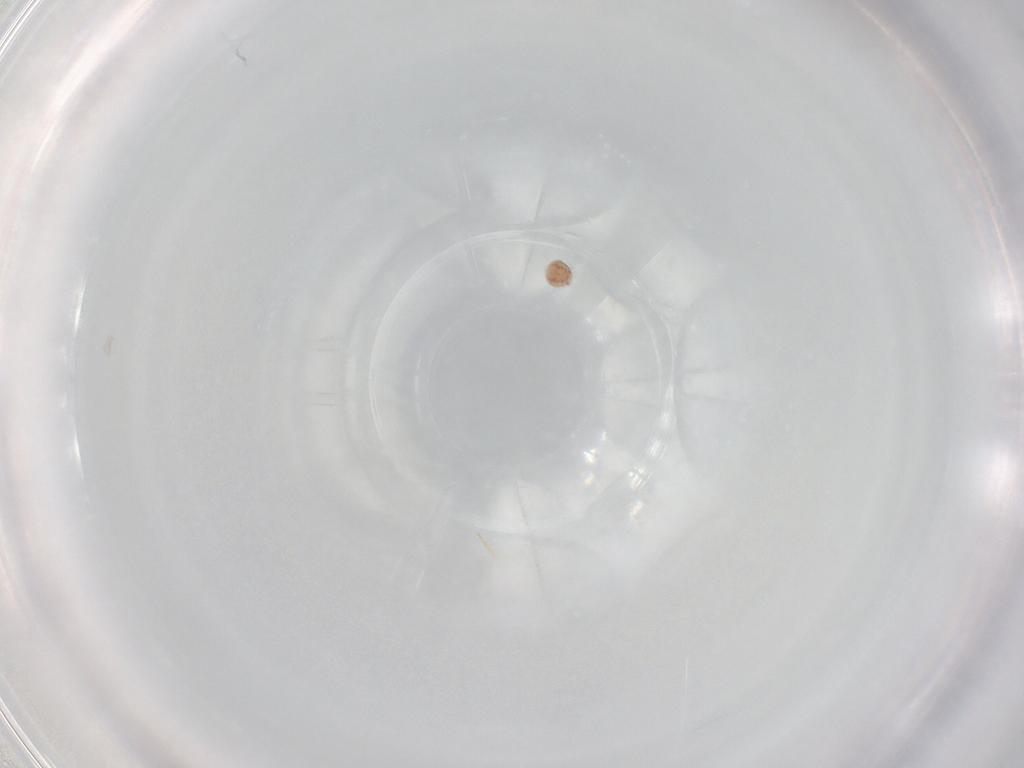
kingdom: Animalia
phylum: Arthropoda
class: Arachnida
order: Trombidiformes
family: Scutacaridae
